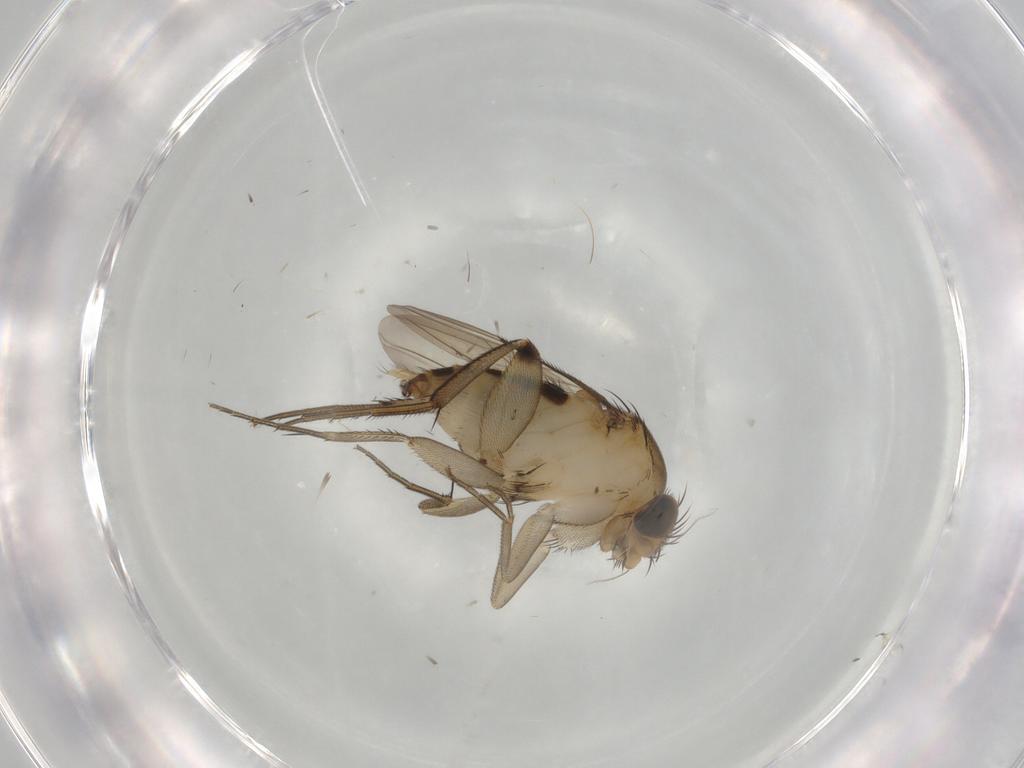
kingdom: Animalia
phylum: Arthropoda
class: Insecta
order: Diptera
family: Phoridae
